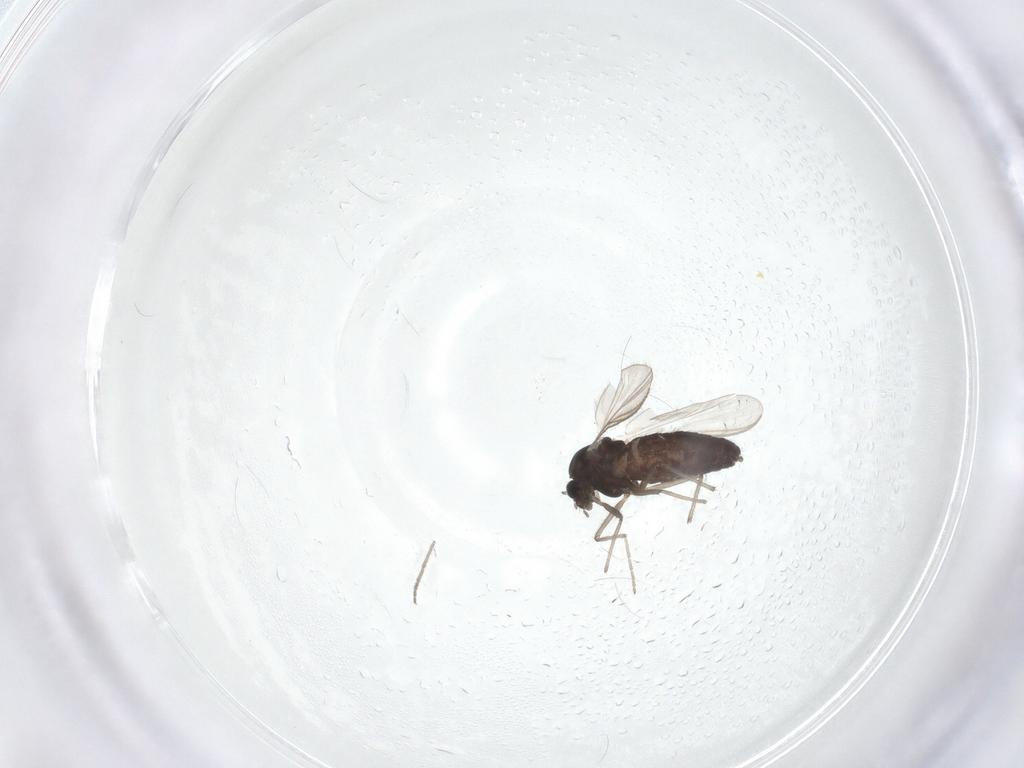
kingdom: Animalia
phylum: Arthropoda
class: Insecta
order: Diptera
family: Chironomidae
